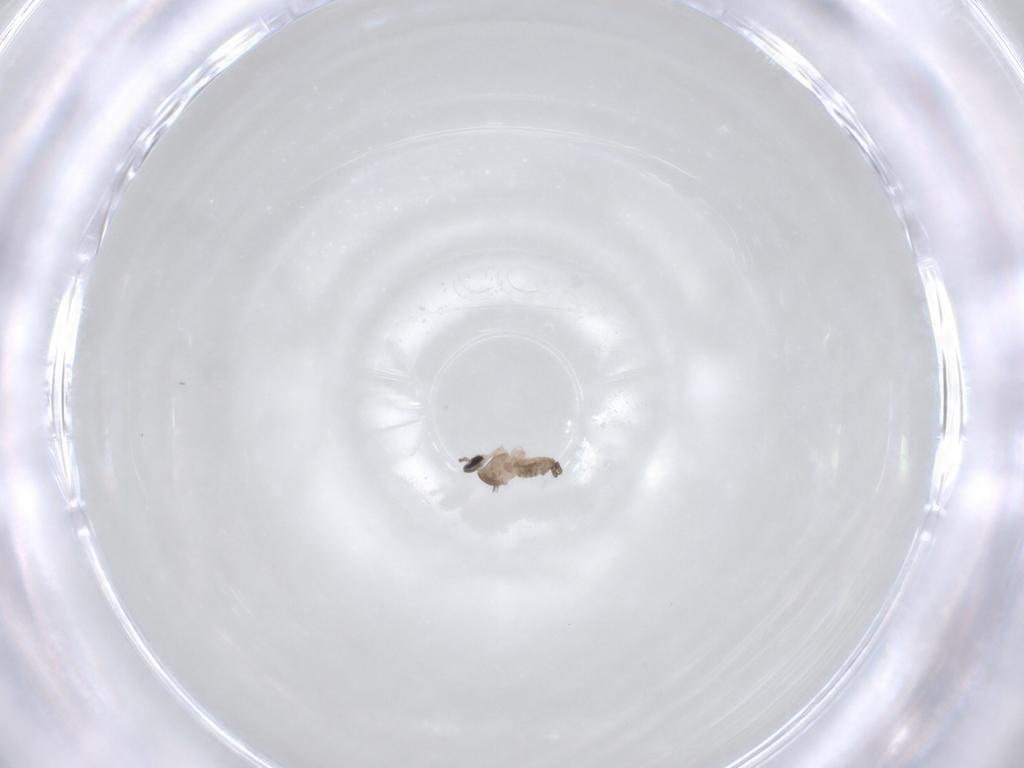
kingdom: Animalia
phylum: Arthropoda
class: Insecta
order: Diptera
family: Cecidomyiidae
